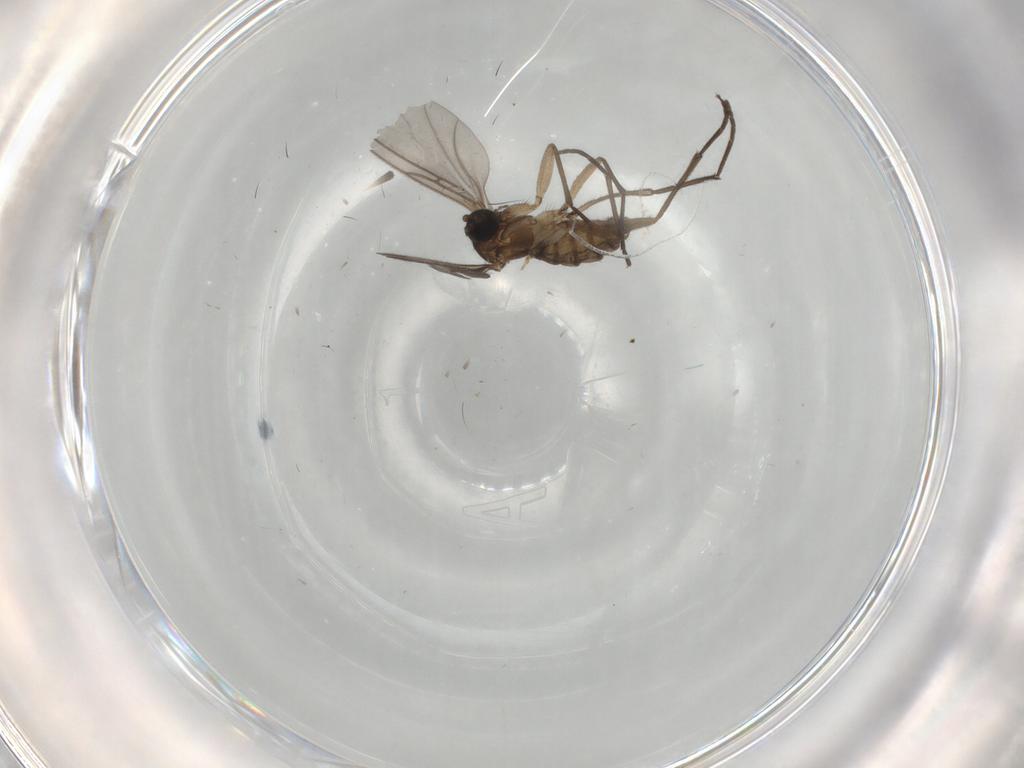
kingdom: Animalia
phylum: Arthropoda
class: Insecta
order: Diptera
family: Sciaridae
